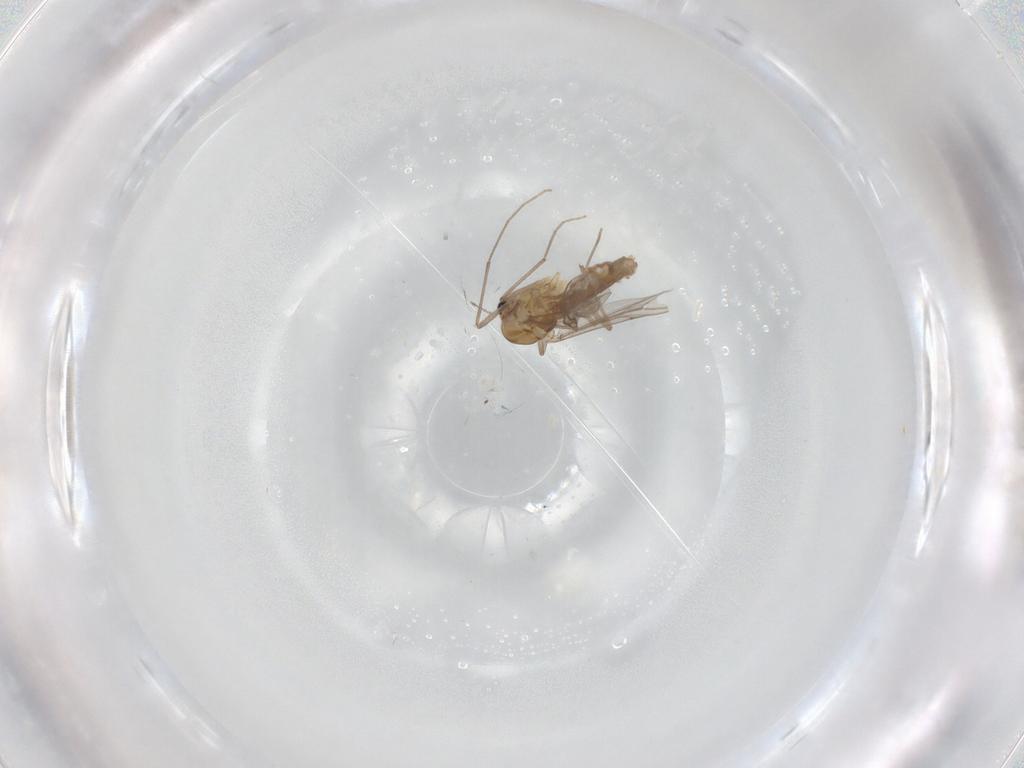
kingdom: Animalia
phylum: Arthropoda
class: Insecta
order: Diptera
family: Chironomidae
